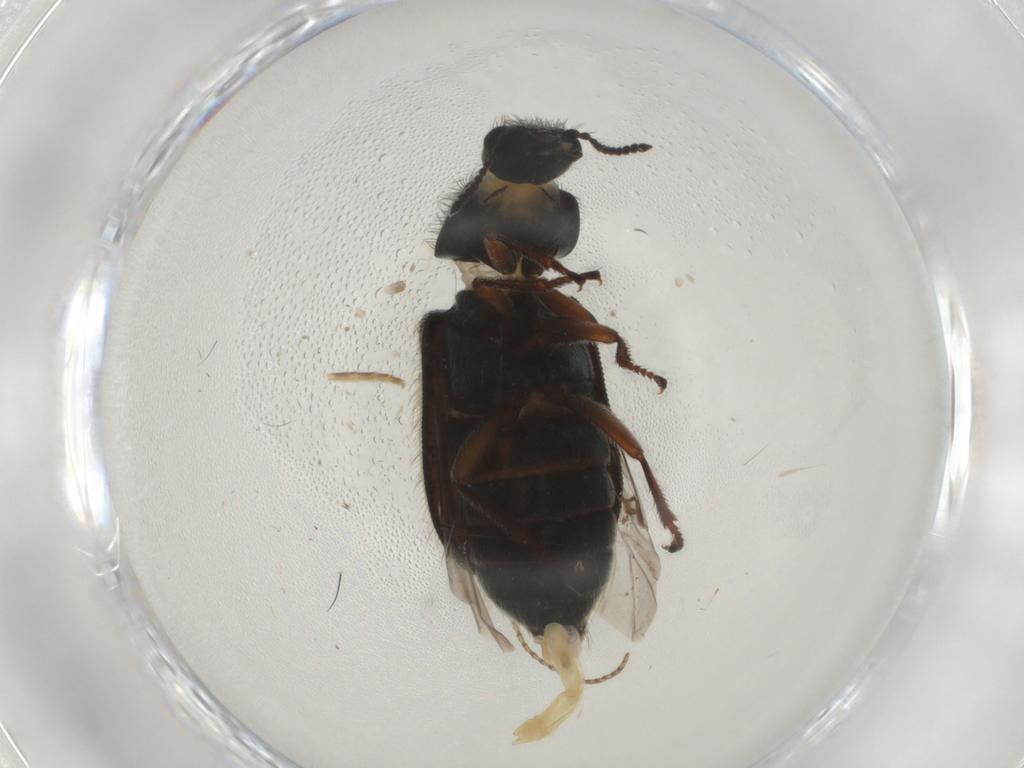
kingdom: Animalia
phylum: Arthropoda
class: Insecta
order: Coleoptera
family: Melyridae
